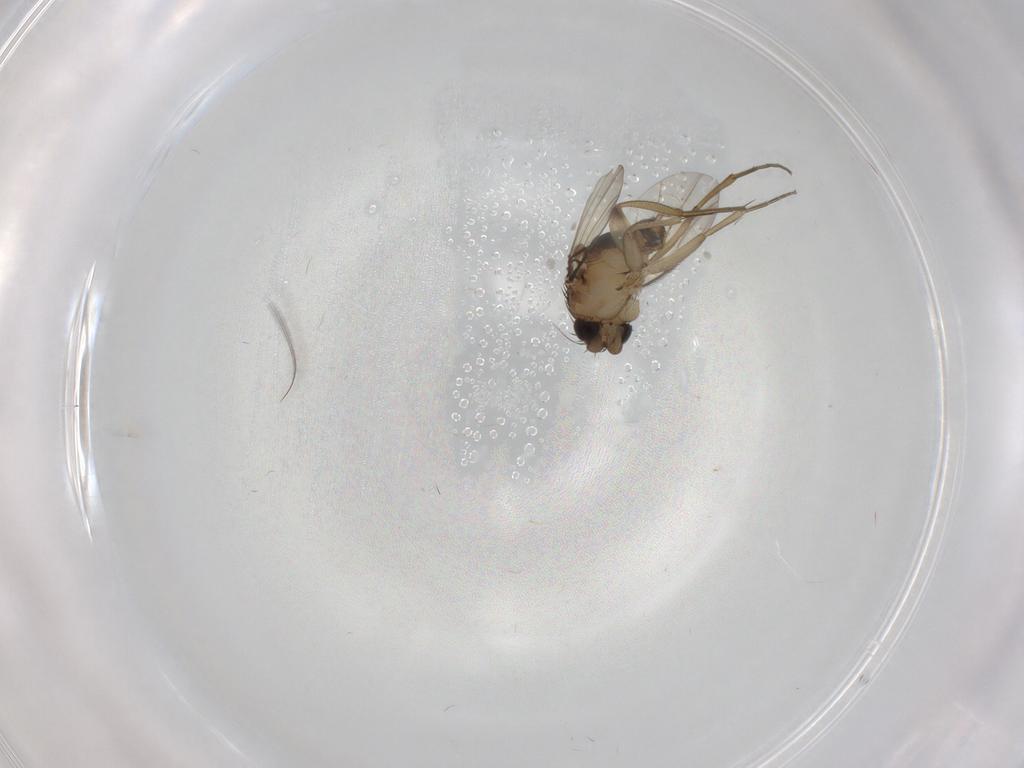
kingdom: Animalia
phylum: Arthropoda
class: Insecta
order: Diptera
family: Phoridae
